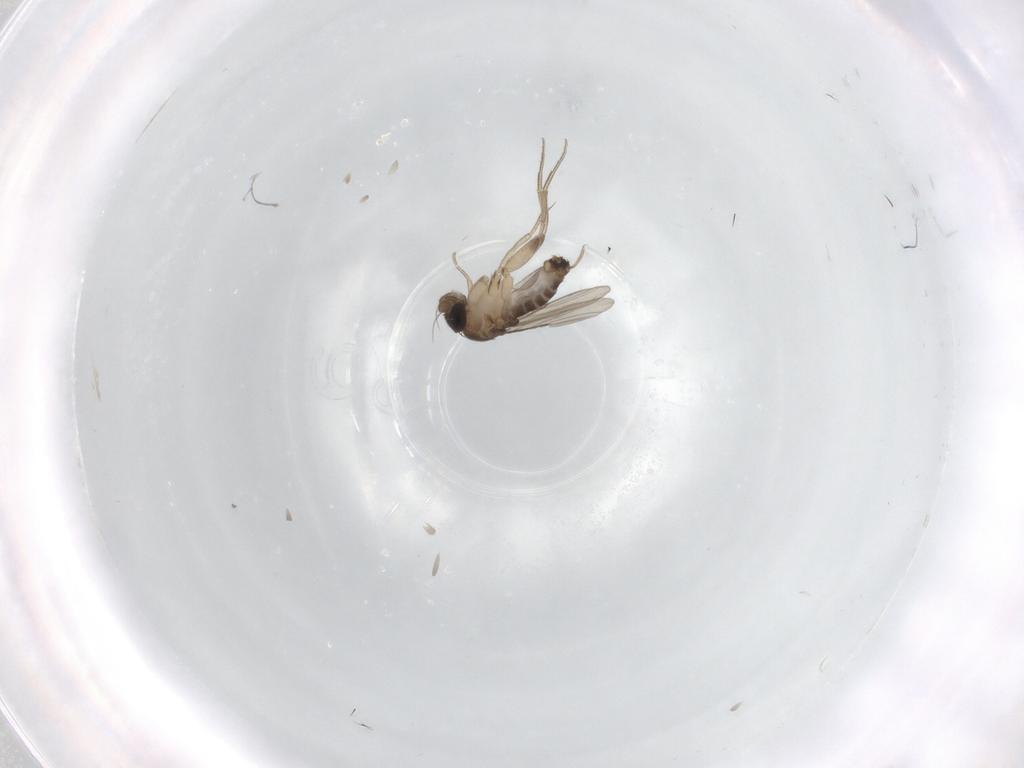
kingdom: Animalia
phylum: Arthropoda
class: Insecta
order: Diptera
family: Phoridae
